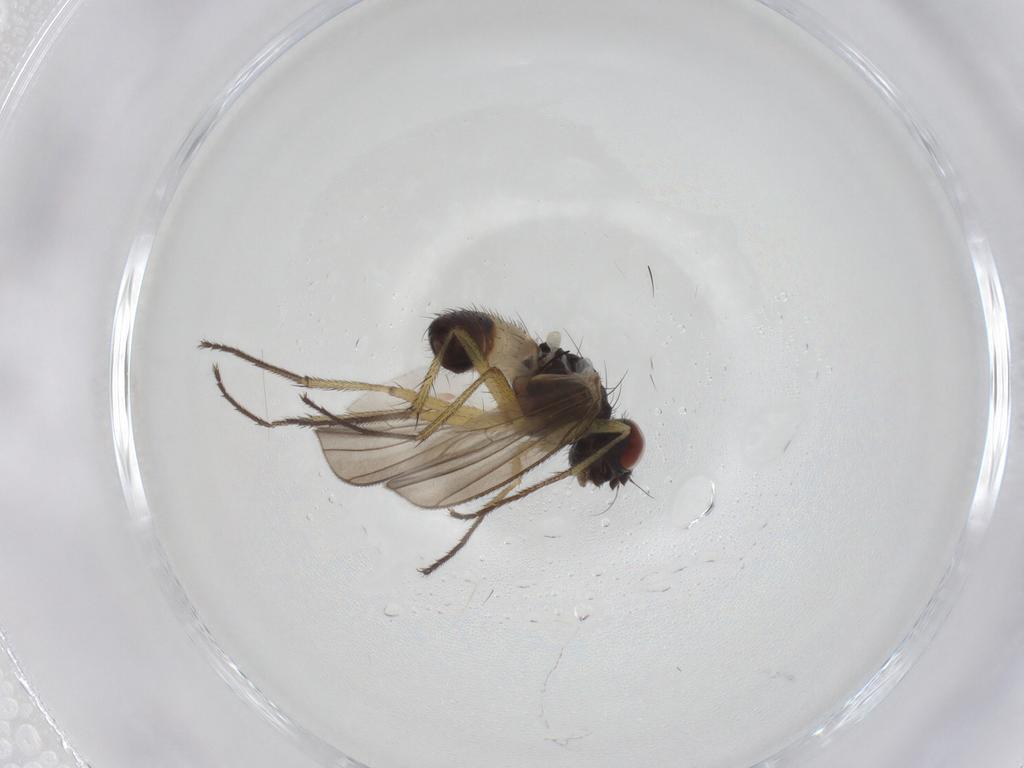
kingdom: Animalia
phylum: Arthropoda
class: Insecta
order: Diptera
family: Muscidae
